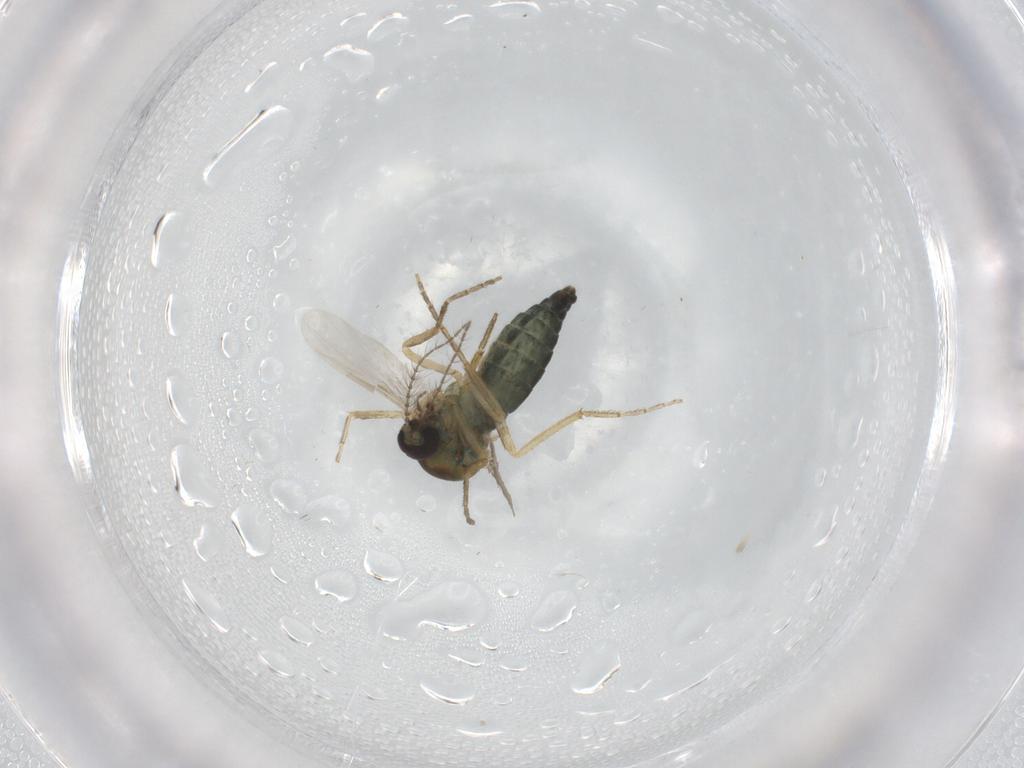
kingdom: Animalia
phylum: Arthropoda
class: Insecta
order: Diptera
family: Ceratopogonidae
